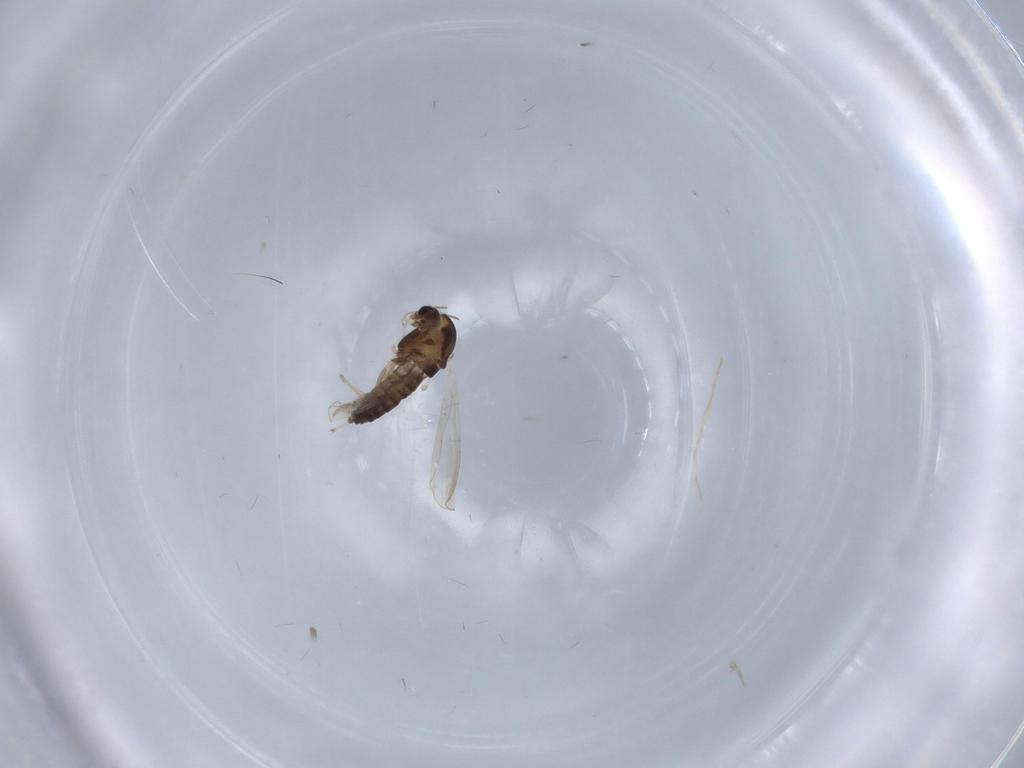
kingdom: Animalia
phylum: Arthropoda
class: Insecta
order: Diptera
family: Chironomidae
